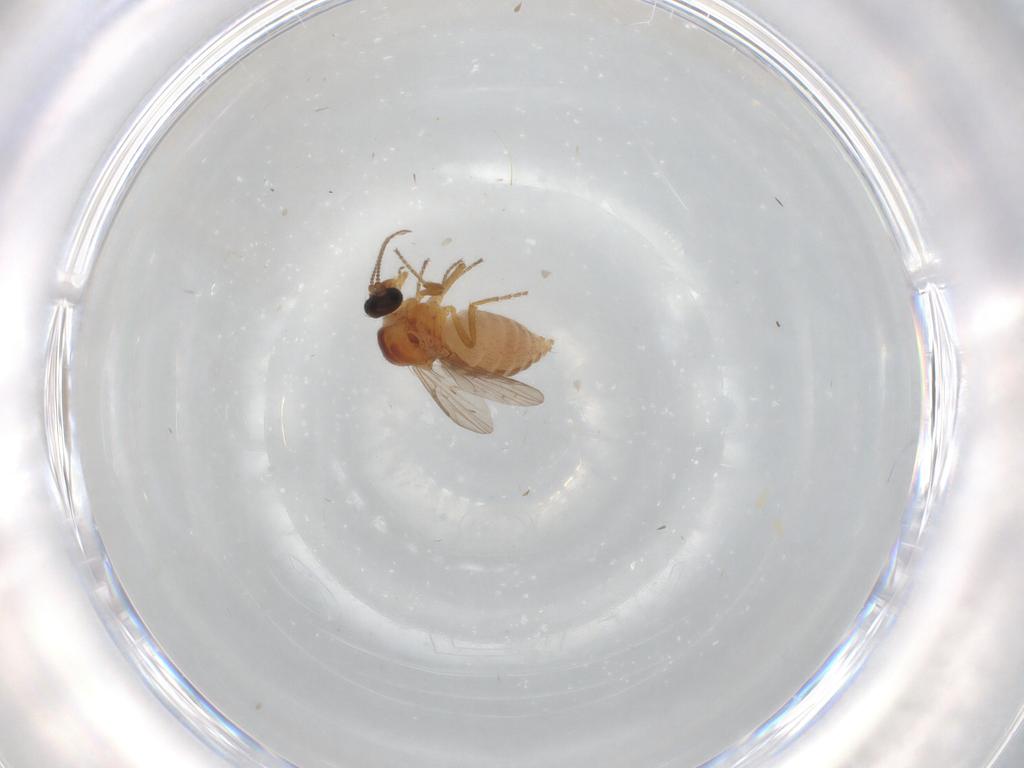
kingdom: Animalia
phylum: Arthropoda
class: Insecta
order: Diptera
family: Ceratopogonidae
